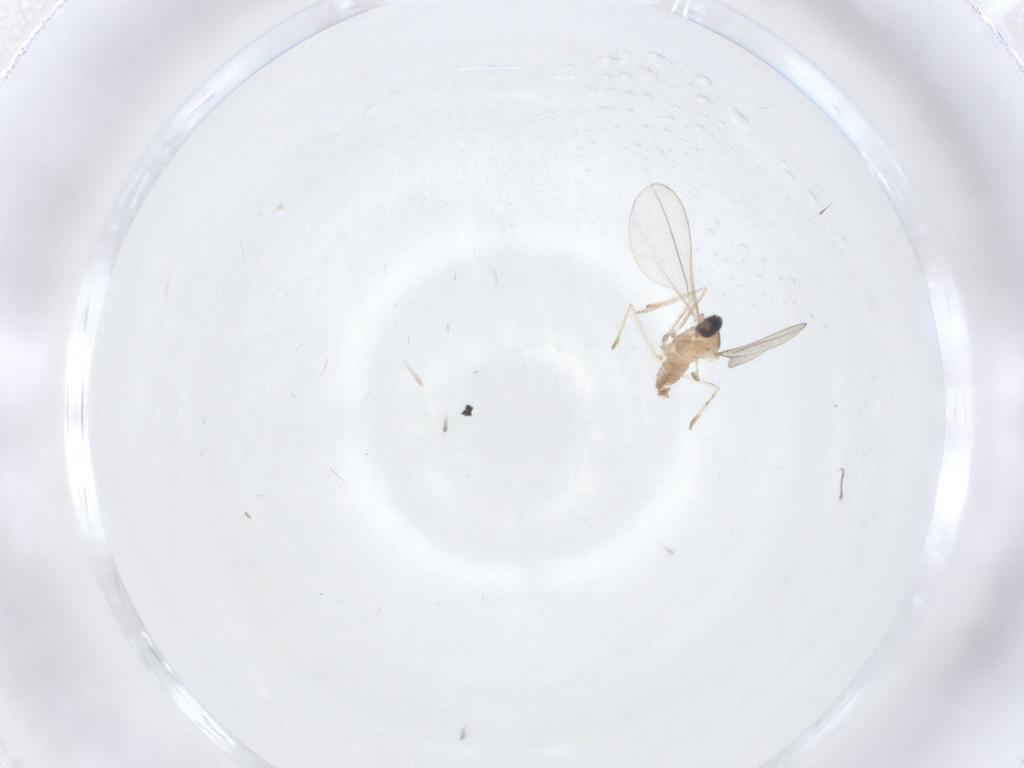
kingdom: Animalia
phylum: Arthropoda
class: Insecta
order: Diptera
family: Cecidomyiidae
